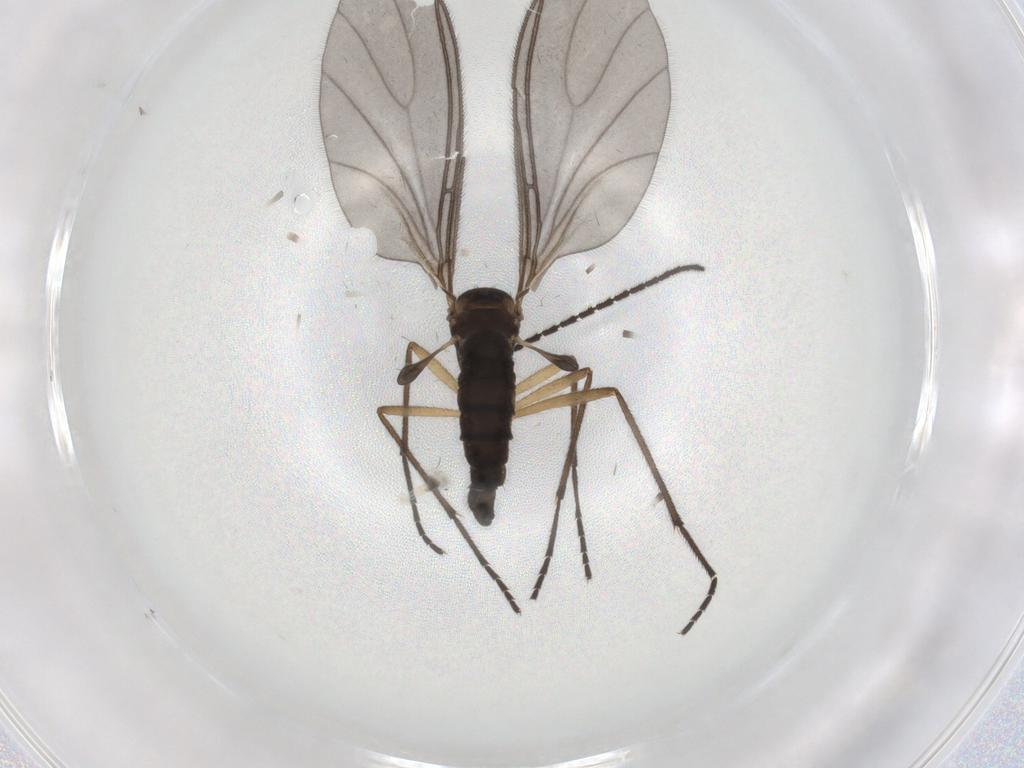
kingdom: Animalia
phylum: Arthropoda
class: Insecta
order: Diptera
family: Sciaridae
